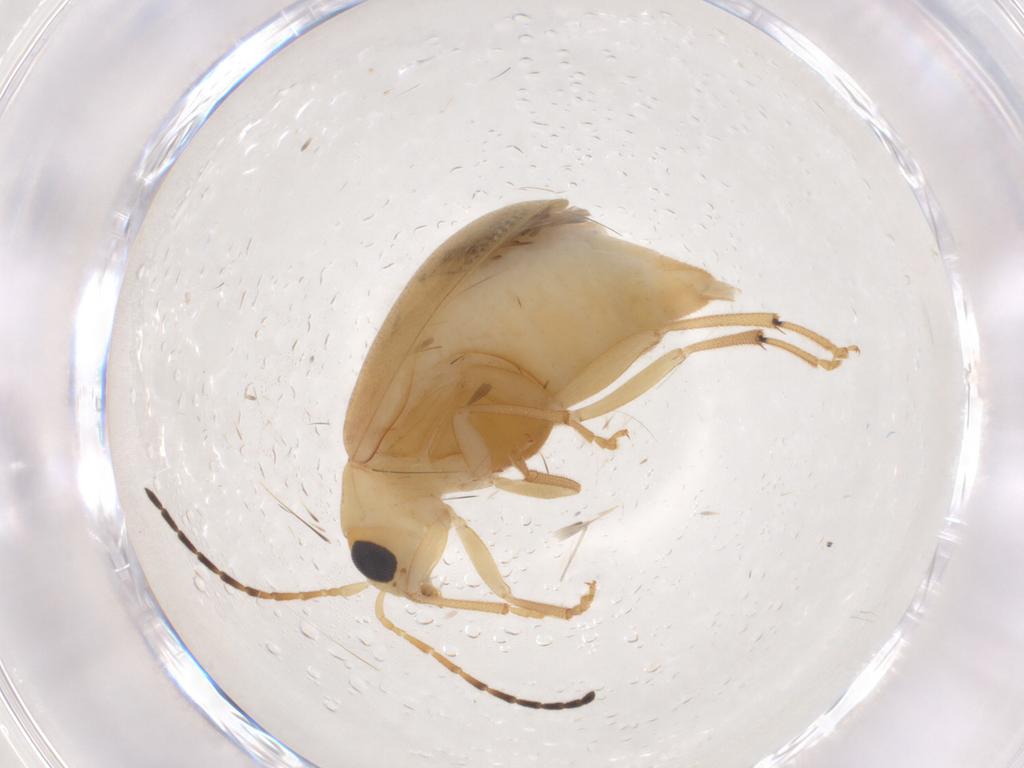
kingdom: Animalia
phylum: Arthropoda
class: Insecta
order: Coleoptera
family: Chrysomelidae
